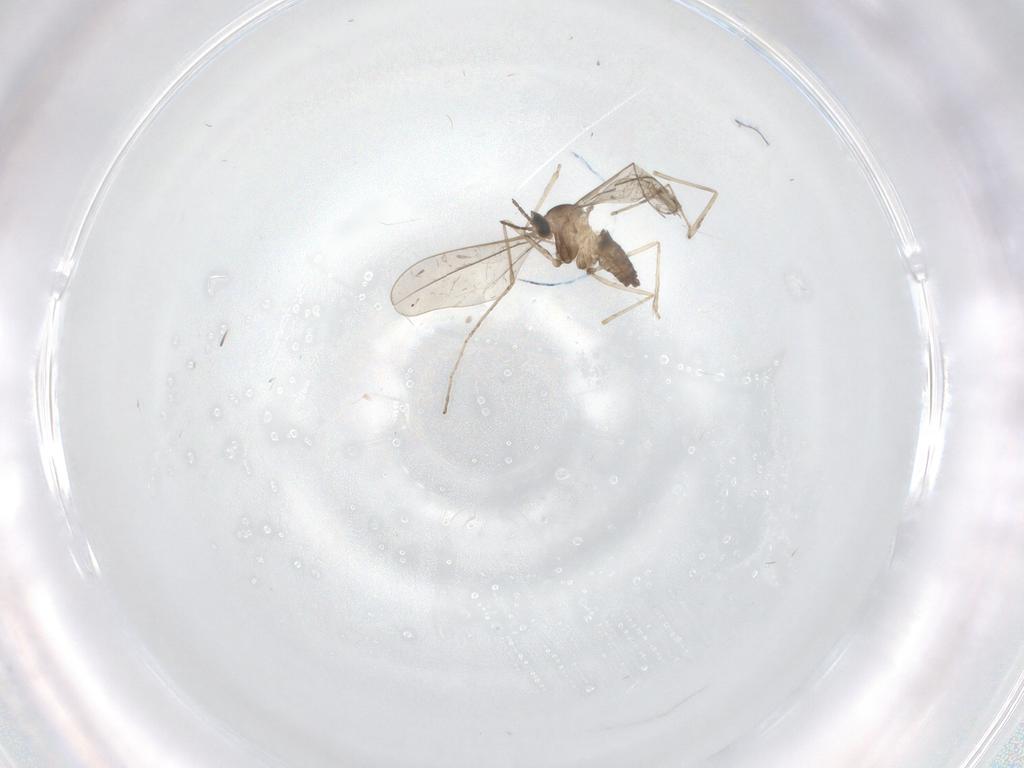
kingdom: Animalia
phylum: Arthropoda
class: Insecta
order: Diptera
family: Cecidomyiidae
